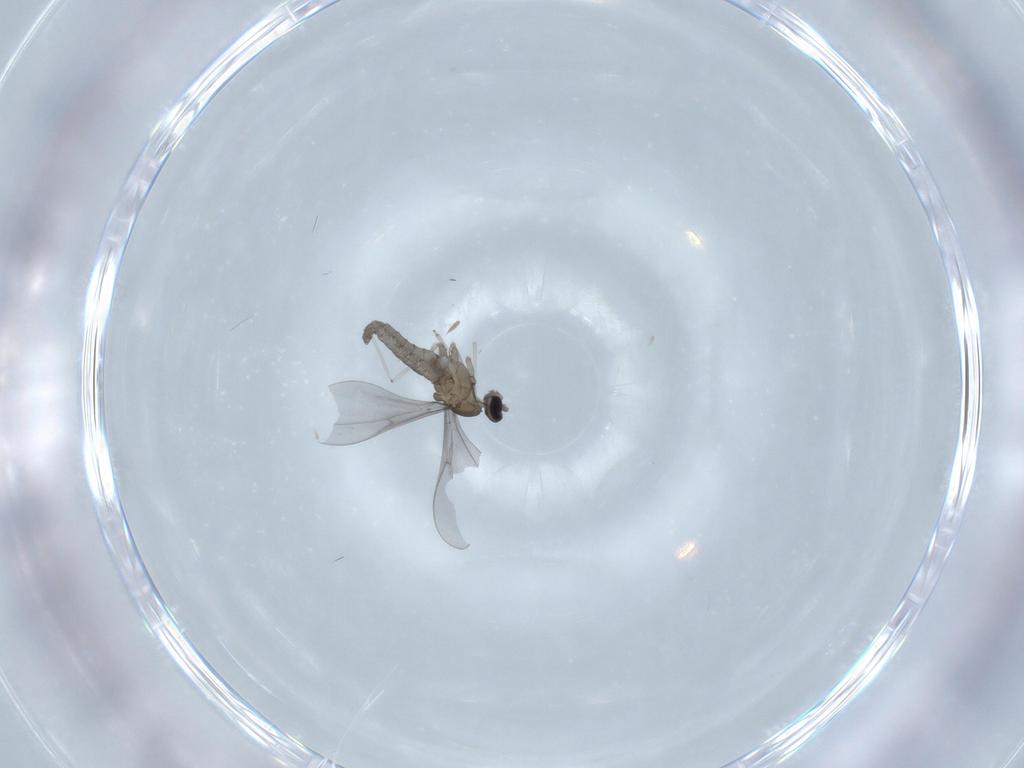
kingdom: Animalia
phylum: Arthropoda
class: Insecta
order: Diptera
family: Sciaridae
